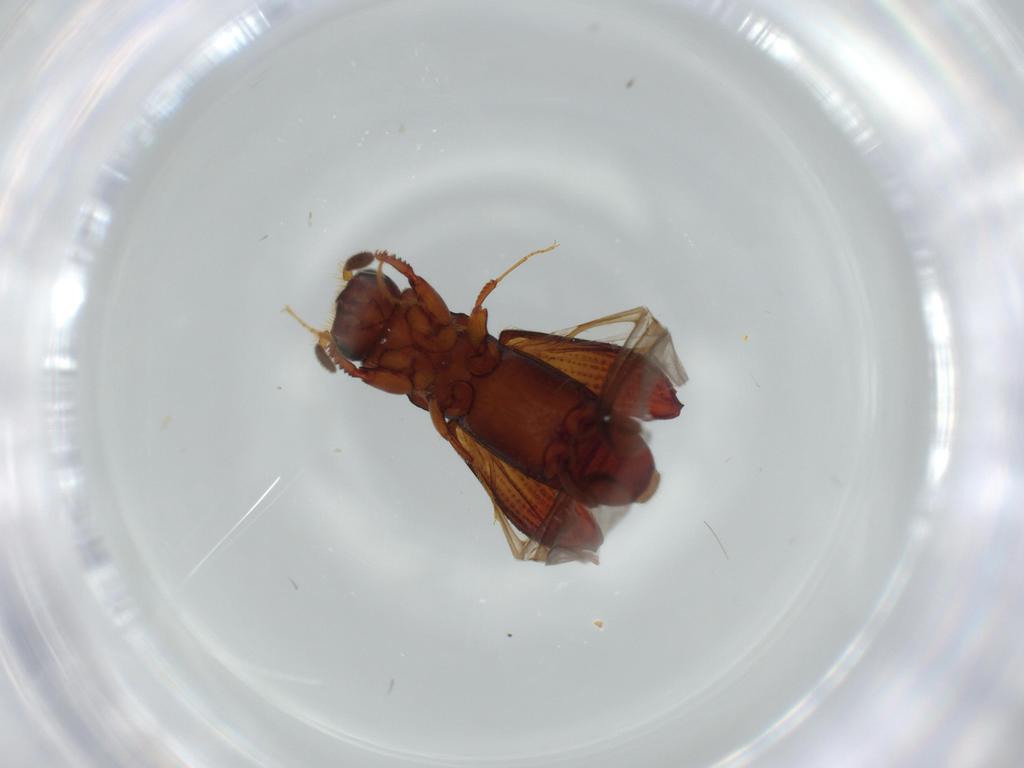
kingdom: Animalia
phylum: Arthropoda
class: Insecta
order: Coleoptera
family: Curculionidae
